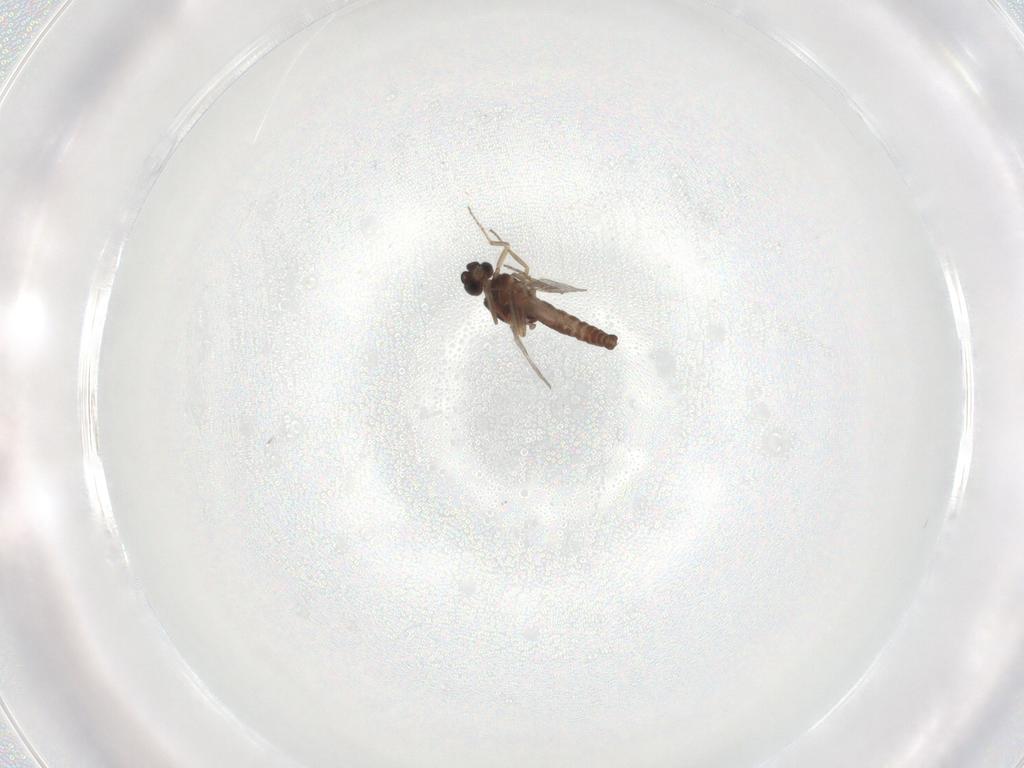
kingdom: Animalia
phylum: Arthropoda
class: Insecta
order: Diptera
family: Ceratopogonidae
